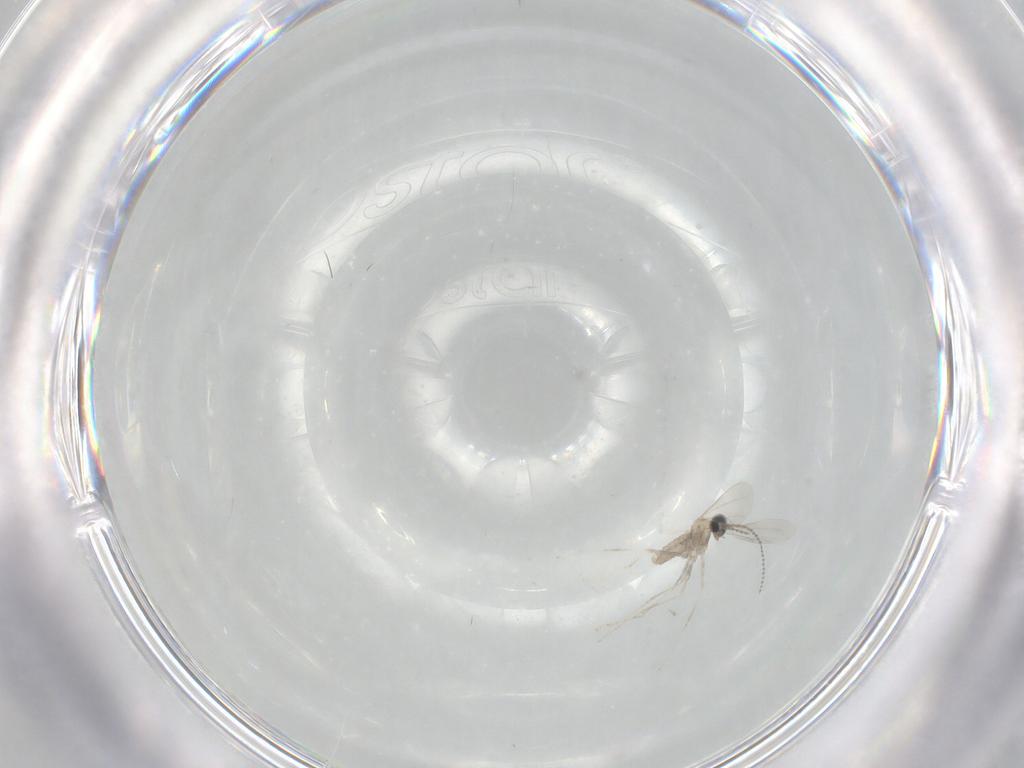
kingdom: Animalia
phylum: Arthropoda
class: Insecta
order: Diptera
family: Cecidomyiidae
